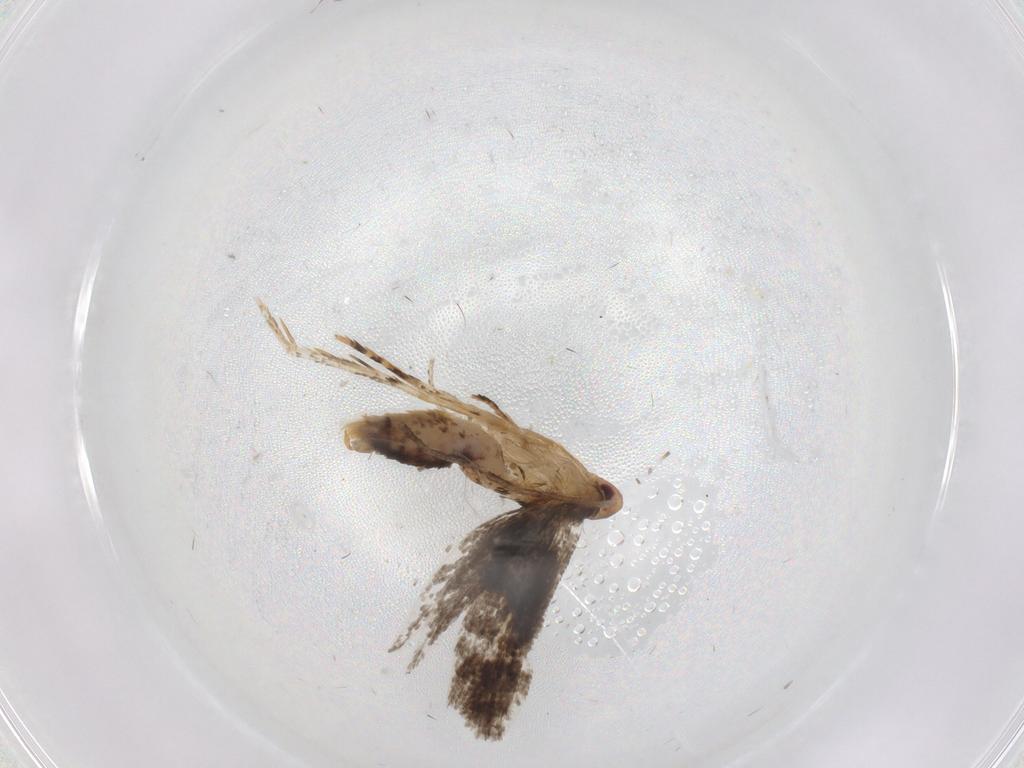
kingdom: Animalia
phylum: Arthropoda
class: Insecta
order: Lepidoptera
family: Momphidae
